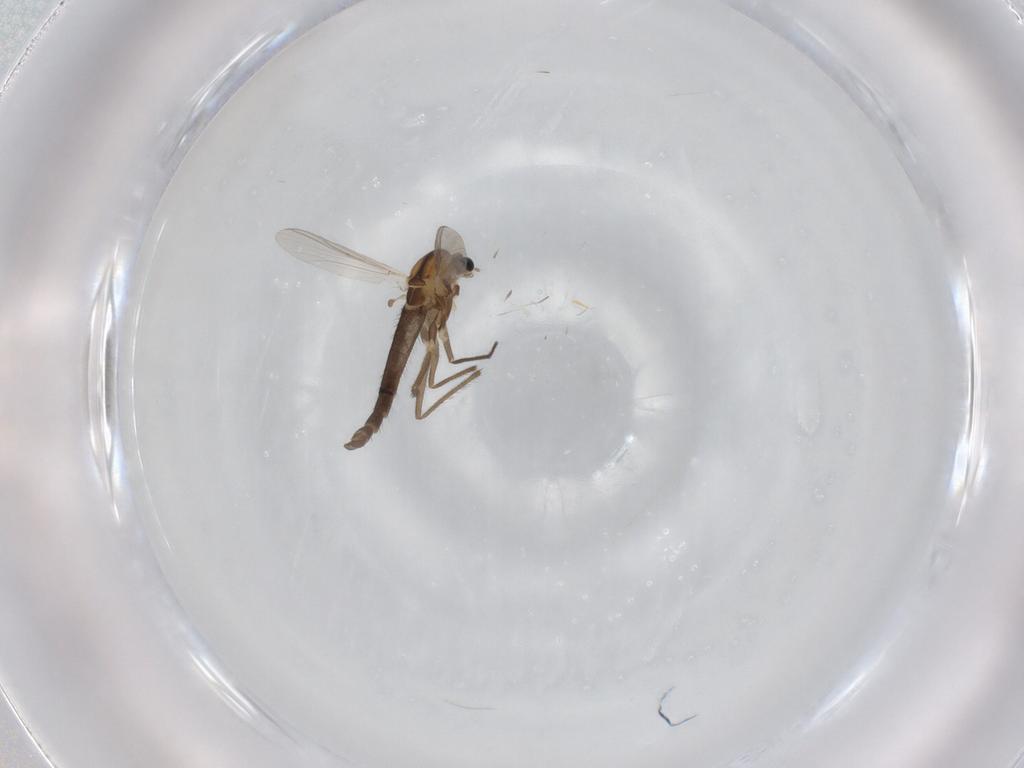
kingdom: Animalia
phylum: Arthropoda
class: Insecta
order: Diptera
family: Chironomidae
